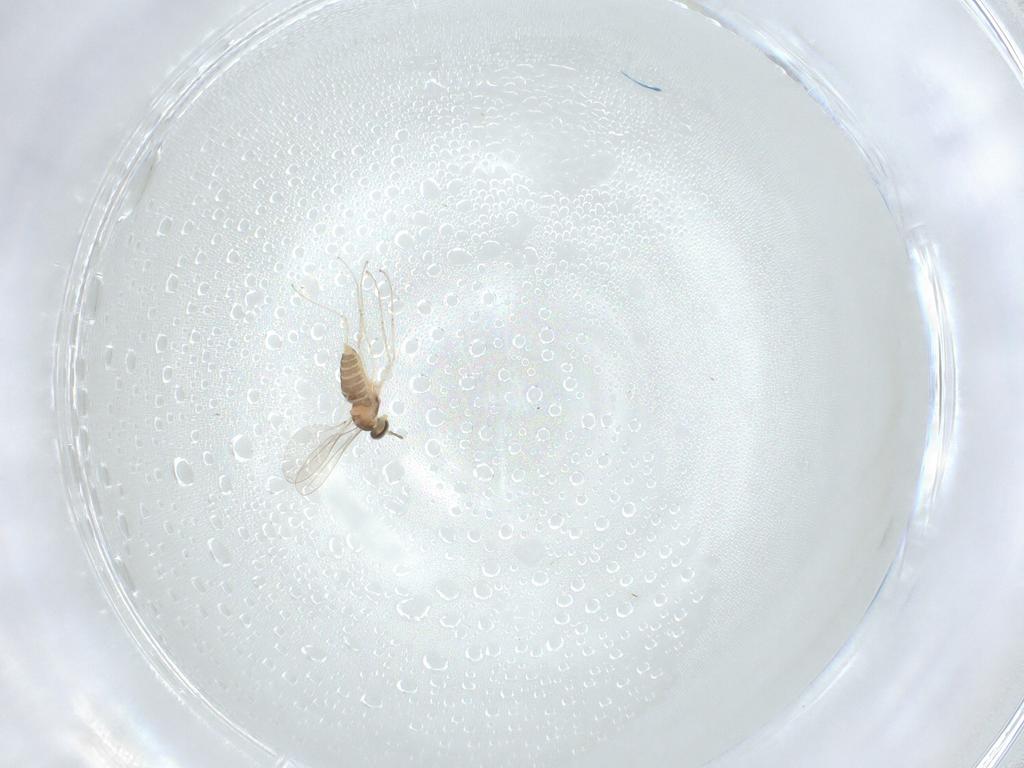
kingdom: Animalia
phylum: Arthropoda
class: Insecta
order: Diptera
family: Cecidomyiidae
